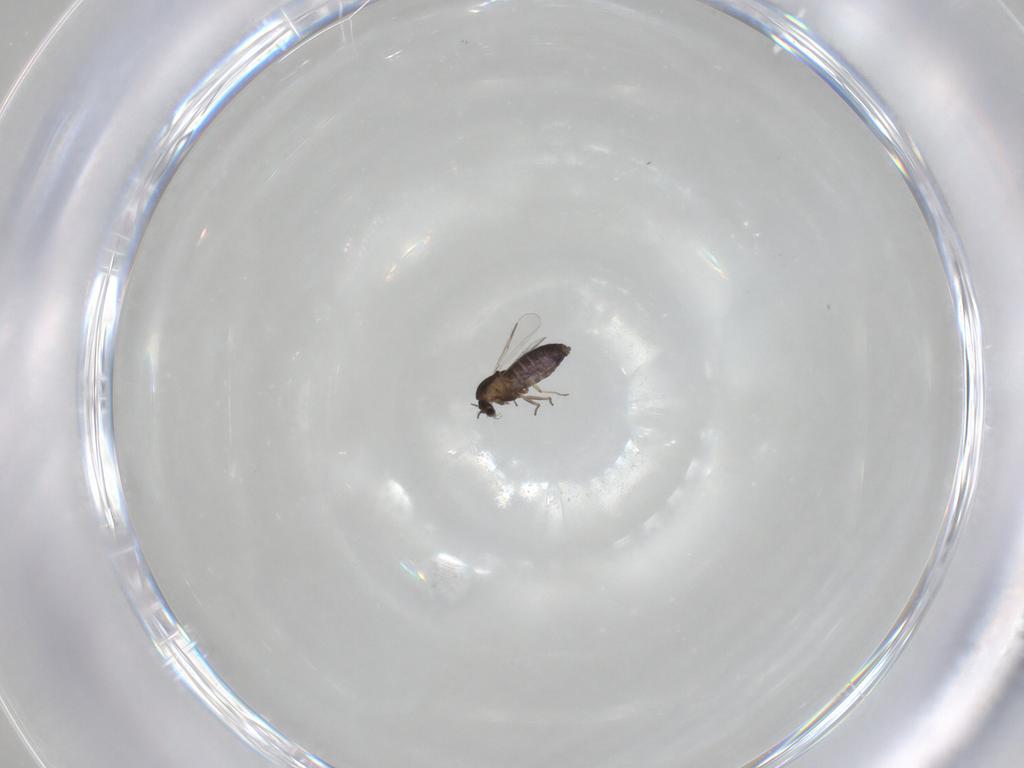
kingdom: Animalia
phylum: Arthropoda
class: Insecta
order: Diptera
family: Chironomidae
